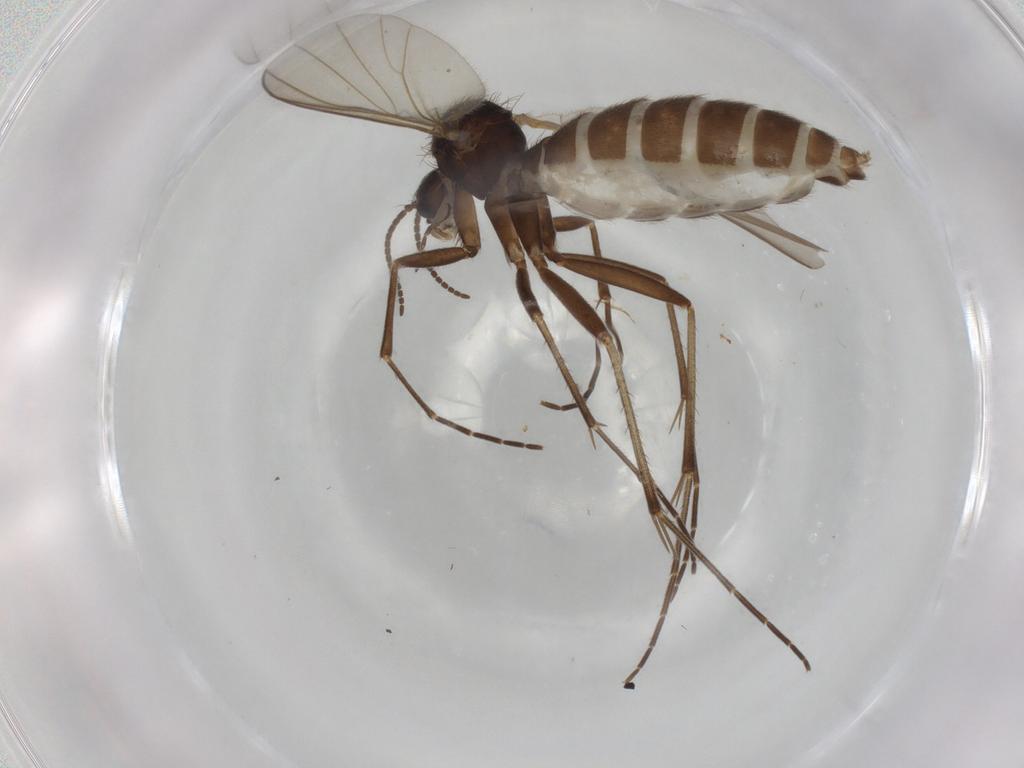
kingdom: Animalia
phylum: Arthropoda
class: Insecta
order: Diptera
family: Mycetophilidae
